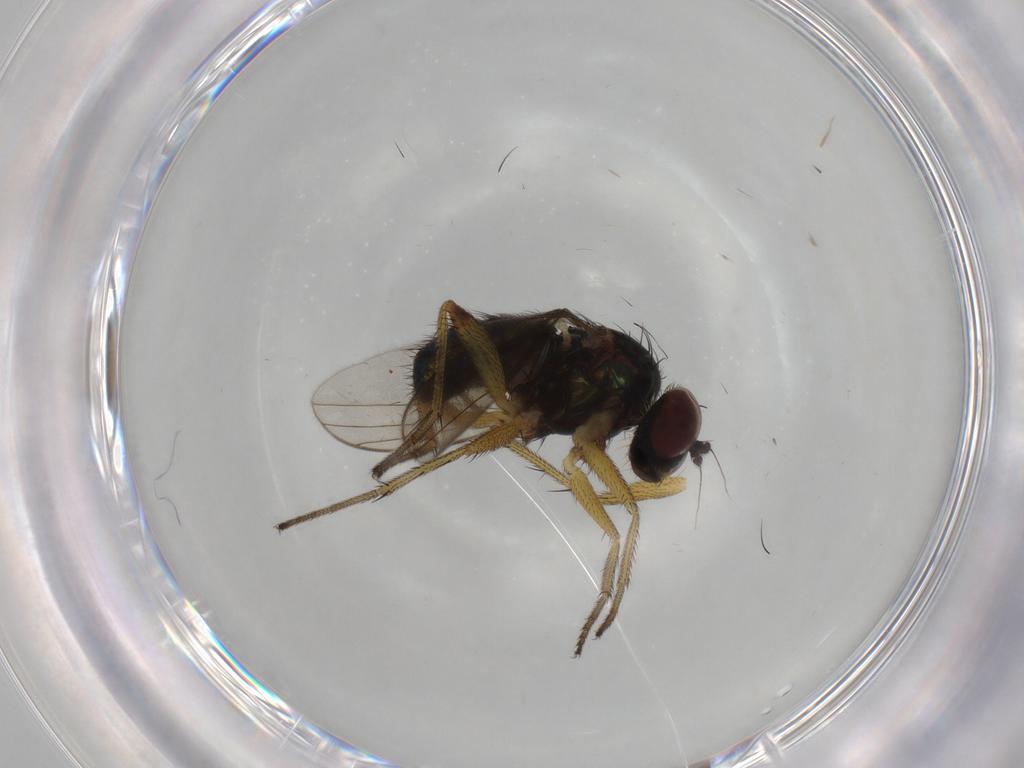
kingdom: Animalia
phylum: Arthropoda
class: Insecta
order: Diptera
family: Dolichopodidae
